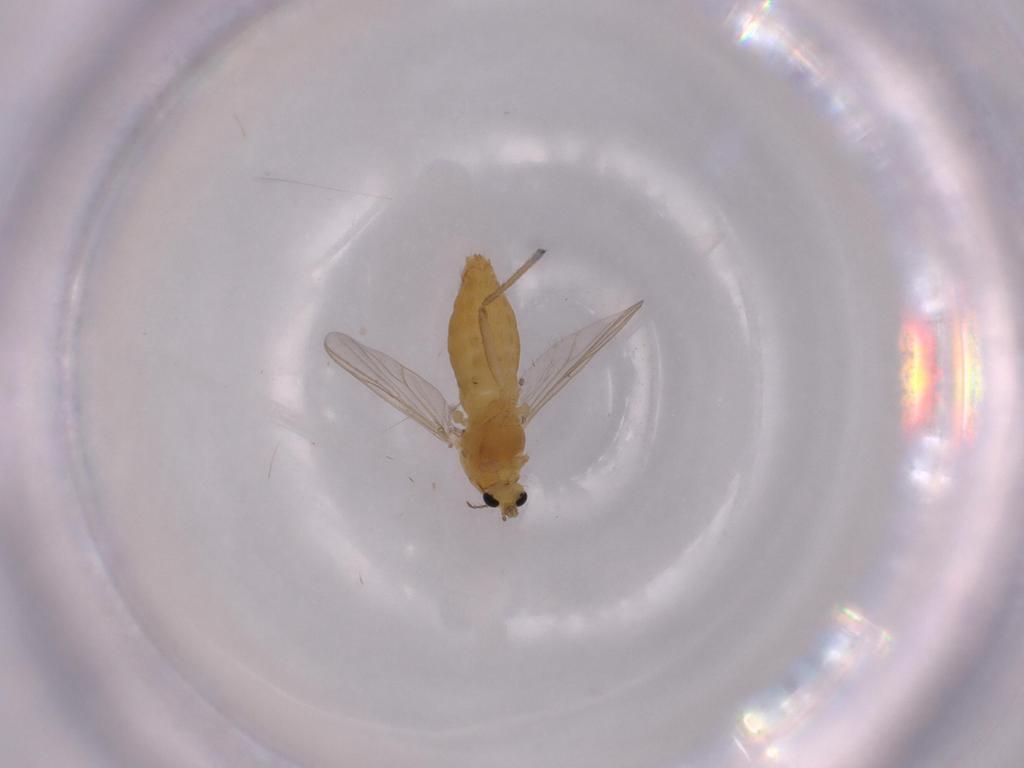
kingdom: Animalia
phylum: Arthropoda
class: Insecta
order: Diptera
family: Chironomidae
